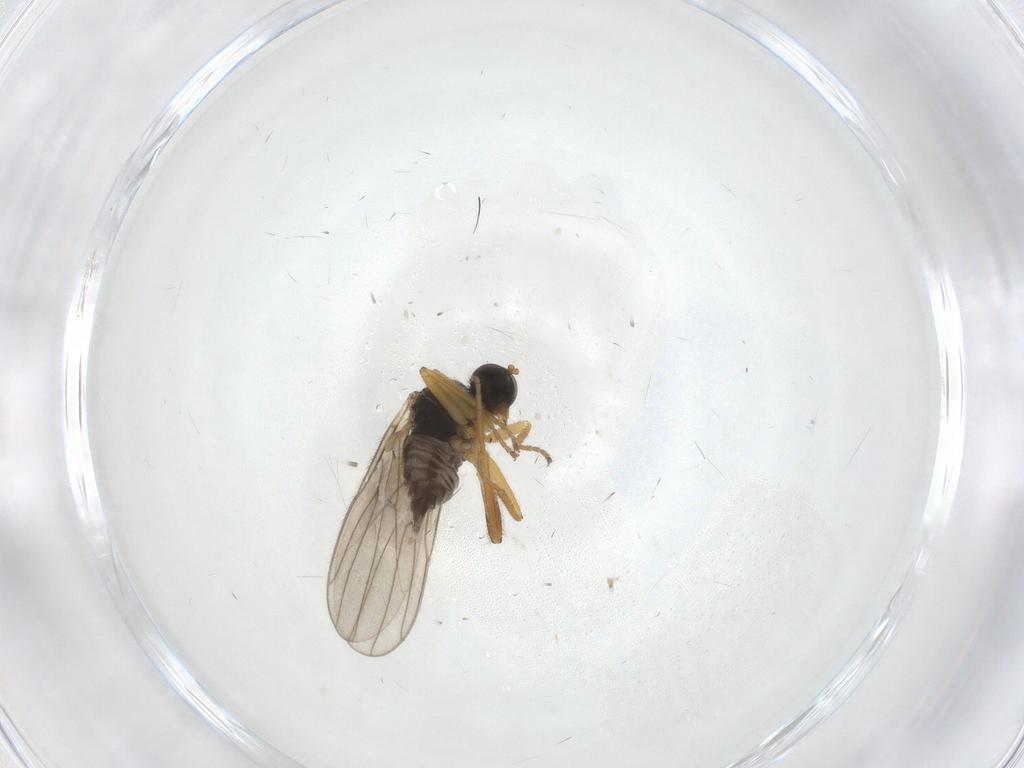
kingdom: Animalia
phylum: Arthropoda
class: Insecta
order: Diptera
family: Hybotidae
